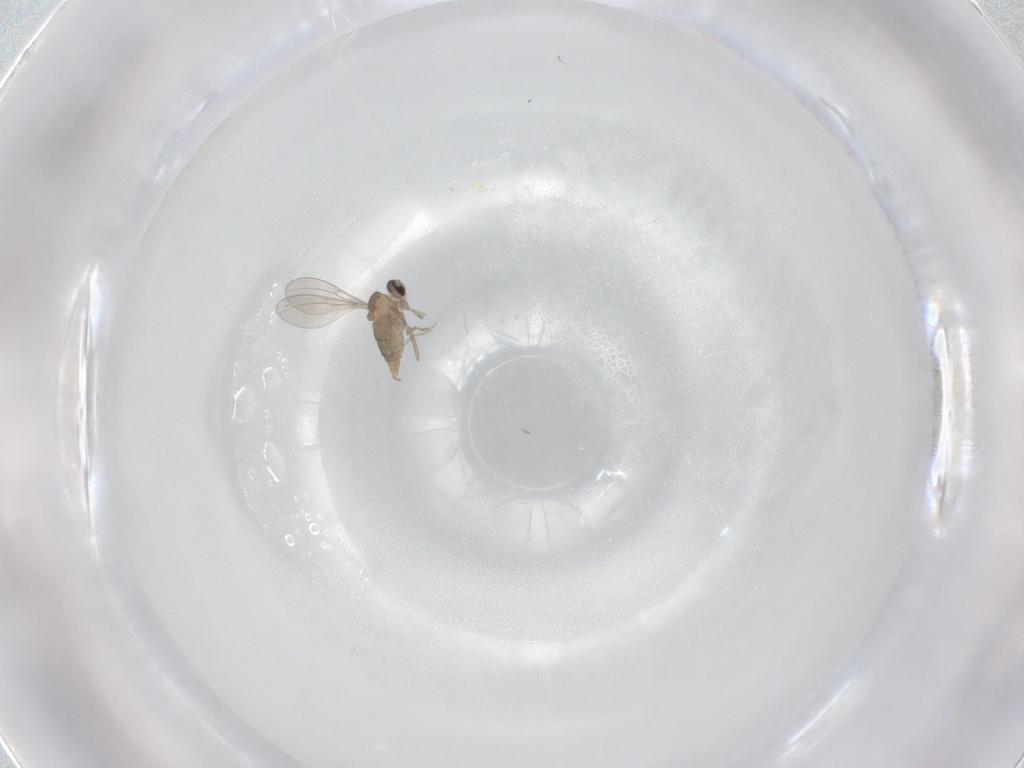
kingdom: Animalia
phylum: Arthropoda
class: Insecta
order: Diptera
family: Cecidomyiidae
